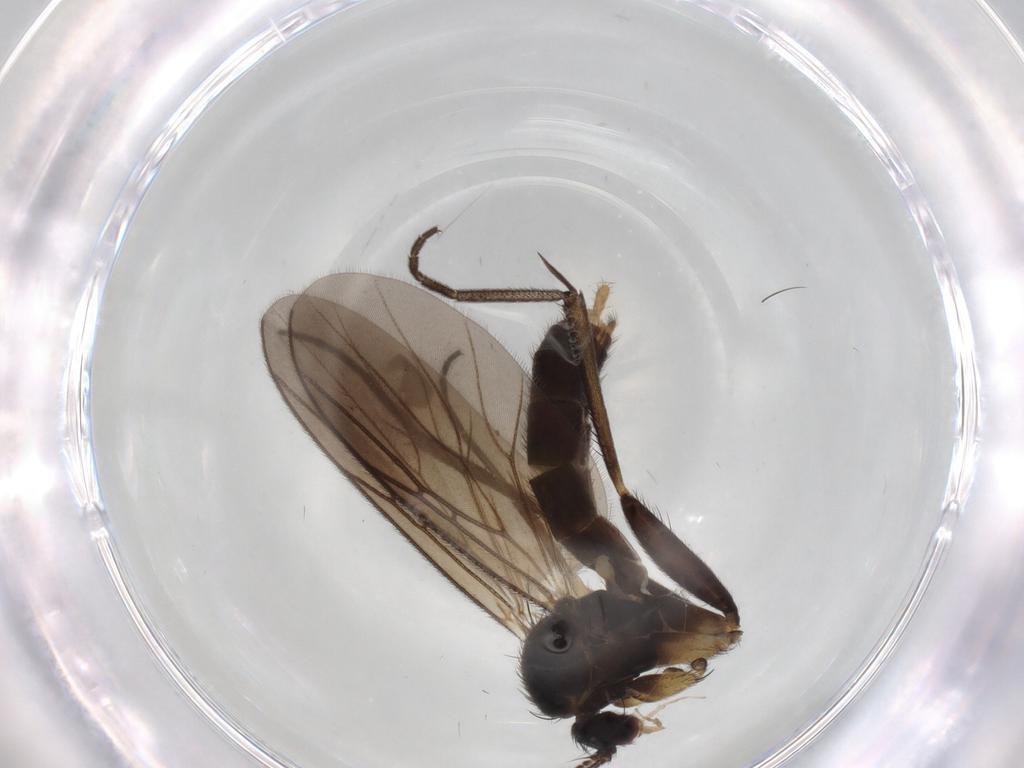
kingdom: Animalia
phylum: Arthropoda
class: Insecta
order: Diptera
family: Mycetophilidae
